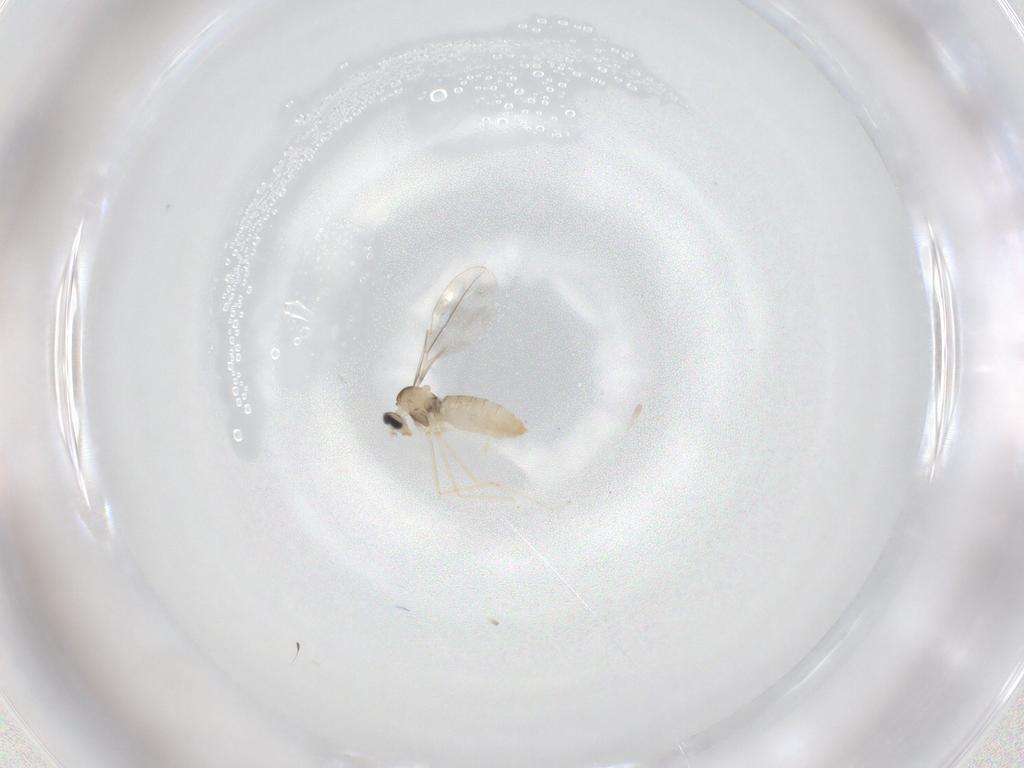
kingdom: Animalia
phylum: Arthropoda
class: Insecta
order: Diptera
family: Cecidomyiidae
